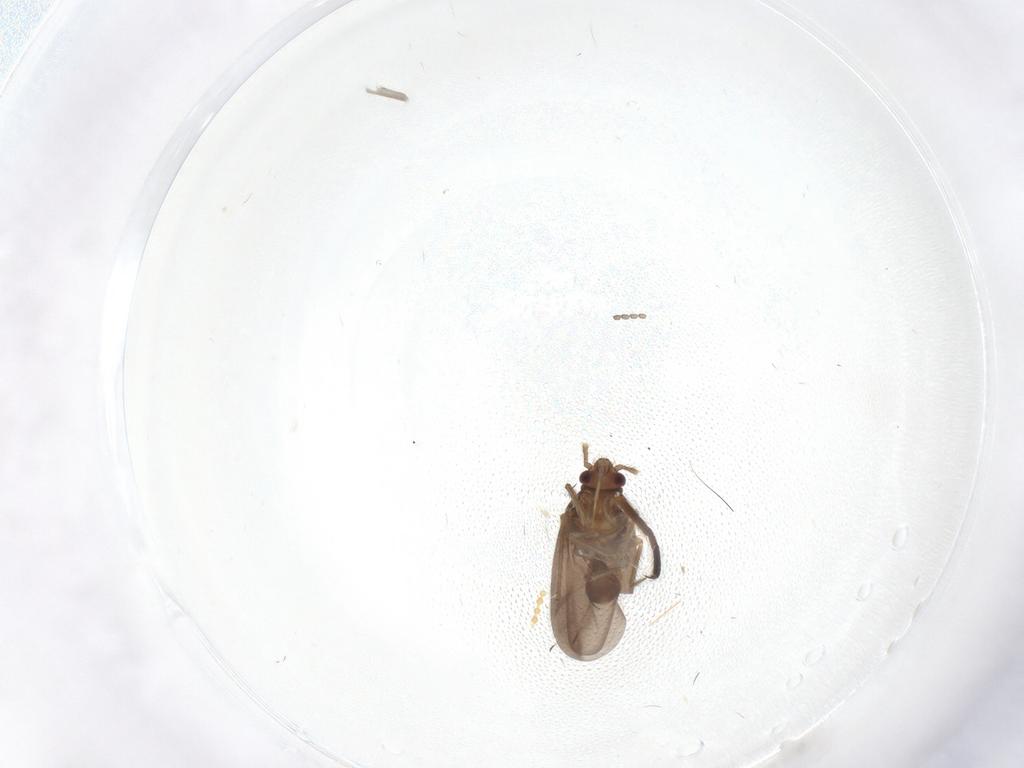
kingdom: Animalia
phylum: Arthropoda
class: Insecta
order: Hemiptera
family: Ceratocombidae
